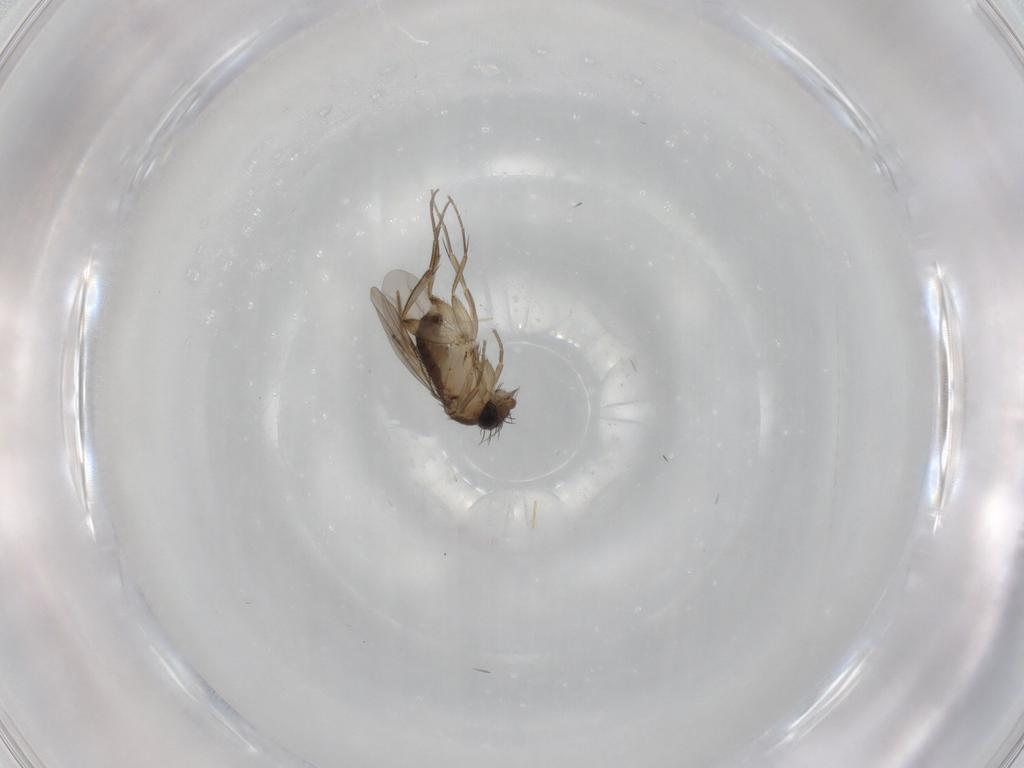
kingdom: Animalia
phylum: Arthropoda
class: Insecta
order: Diptera
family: Phoridae
